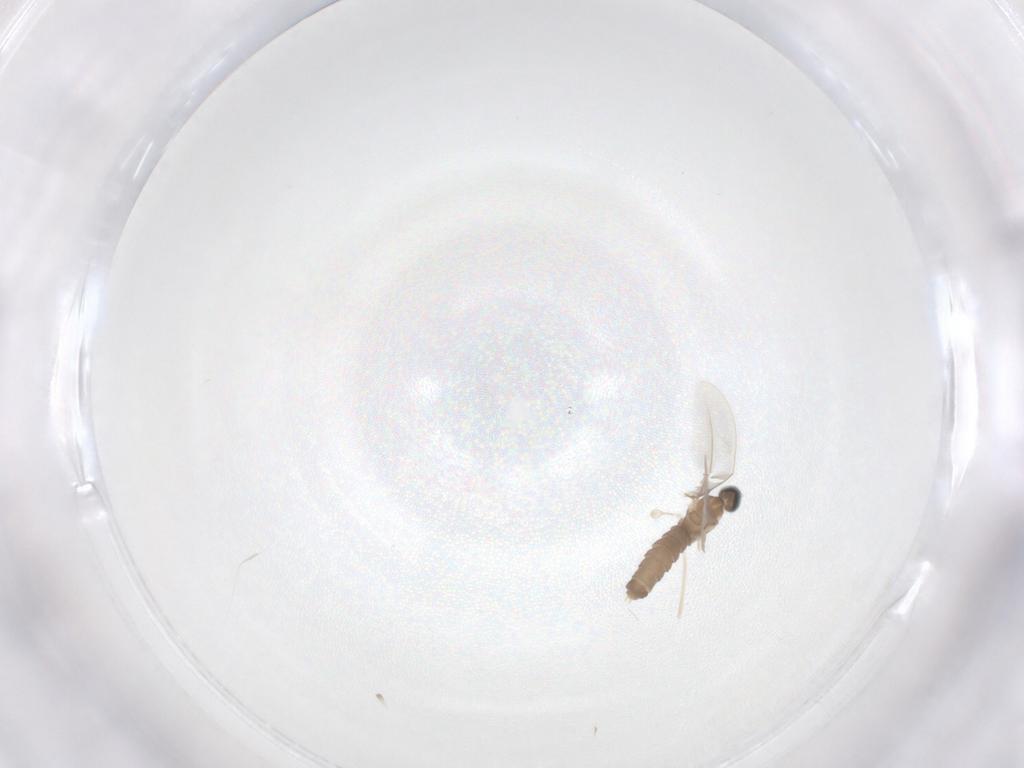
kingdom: Animalia
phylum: Arthropoda
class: Insecta
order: Diptera
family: Cecidomyiidae
